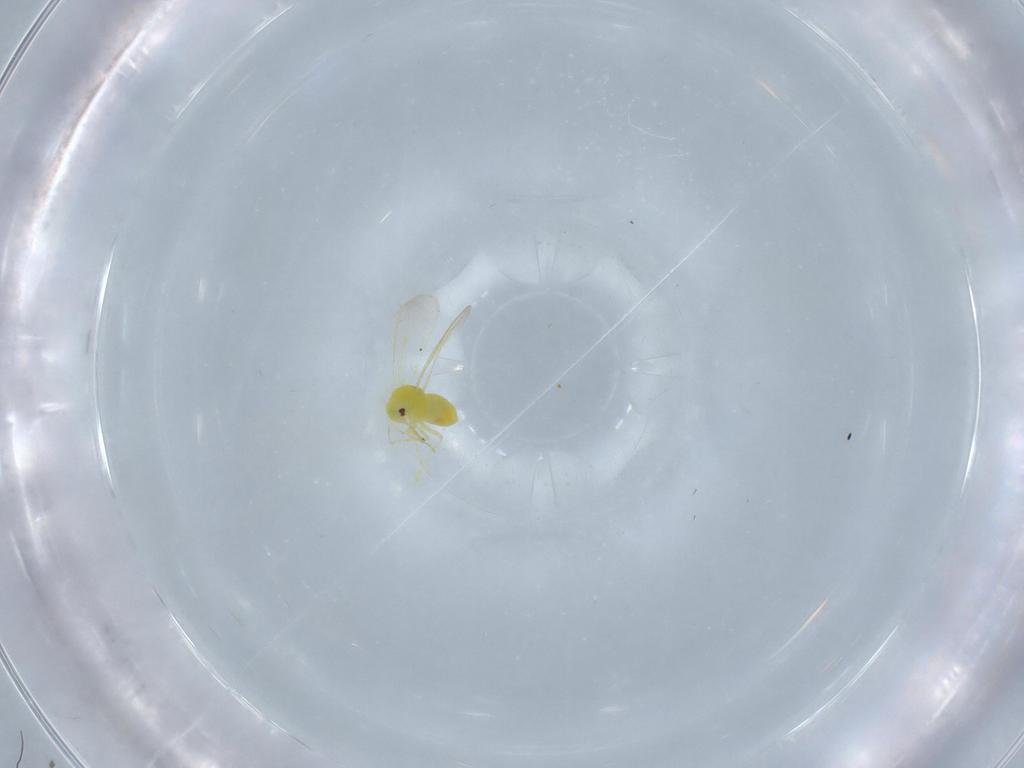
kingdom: Animalia
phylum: Arthropoda
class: Insecta
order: Hemiptera
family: Aleyrodidae
